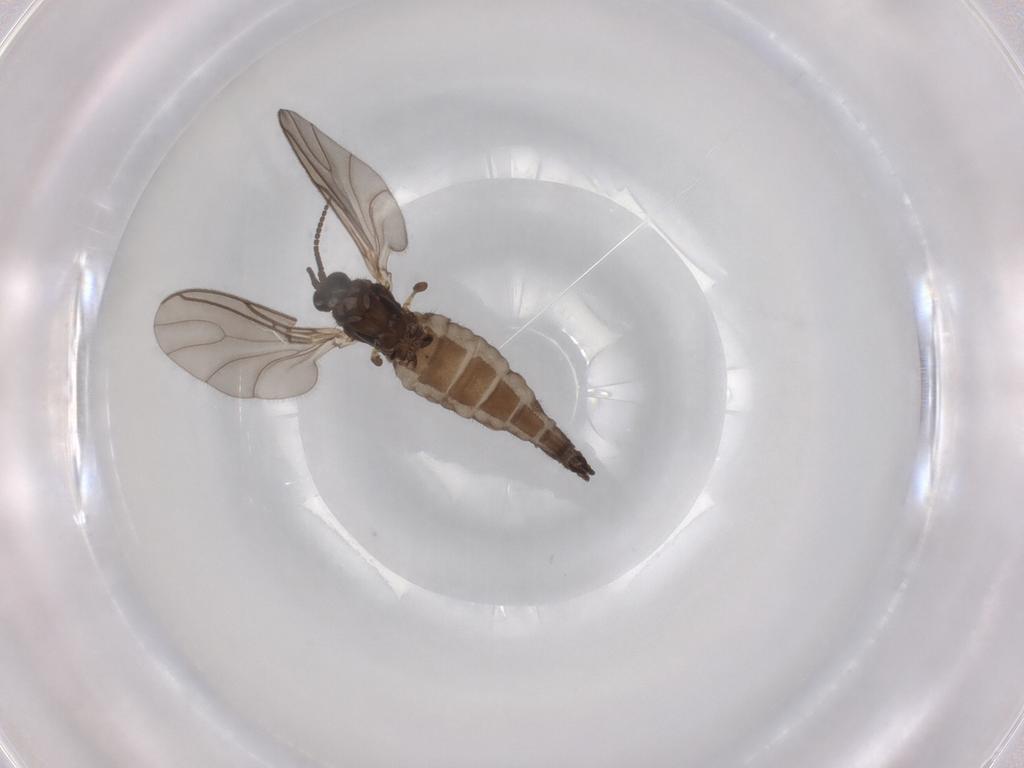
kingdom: Animalia
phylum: Arthropoda
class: Insecta
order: Diptera
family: Sciaridae
